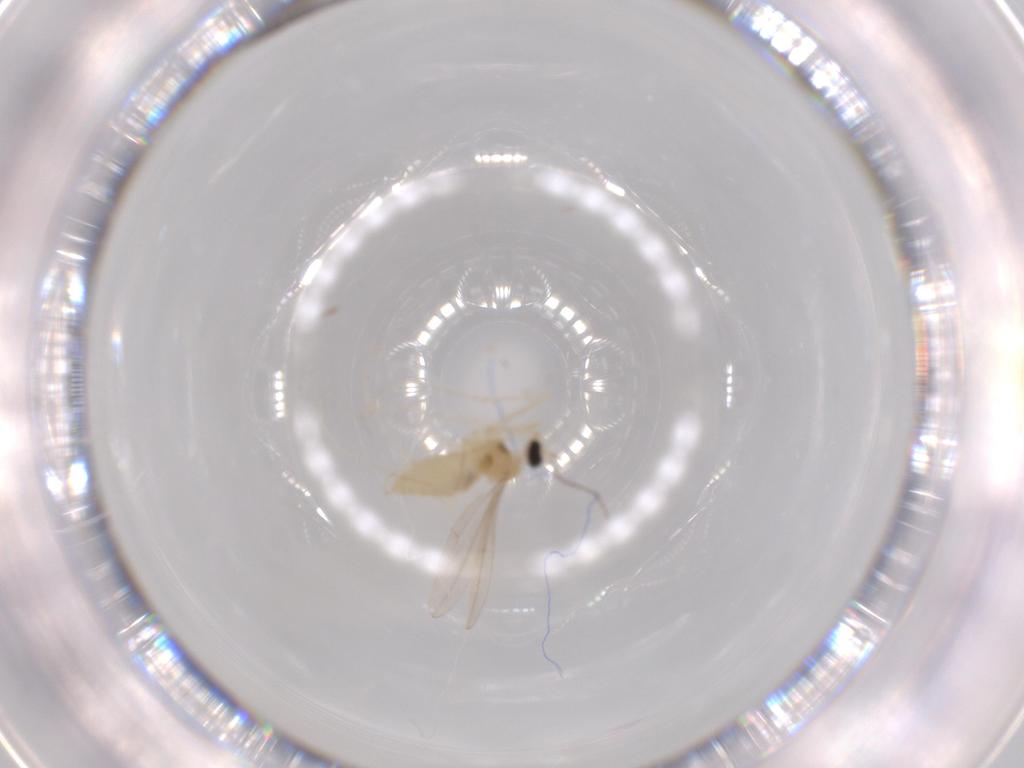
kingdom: Animalia
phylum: Arthropoda
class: Insecta
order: Diptera
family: Cecidomyiidae
